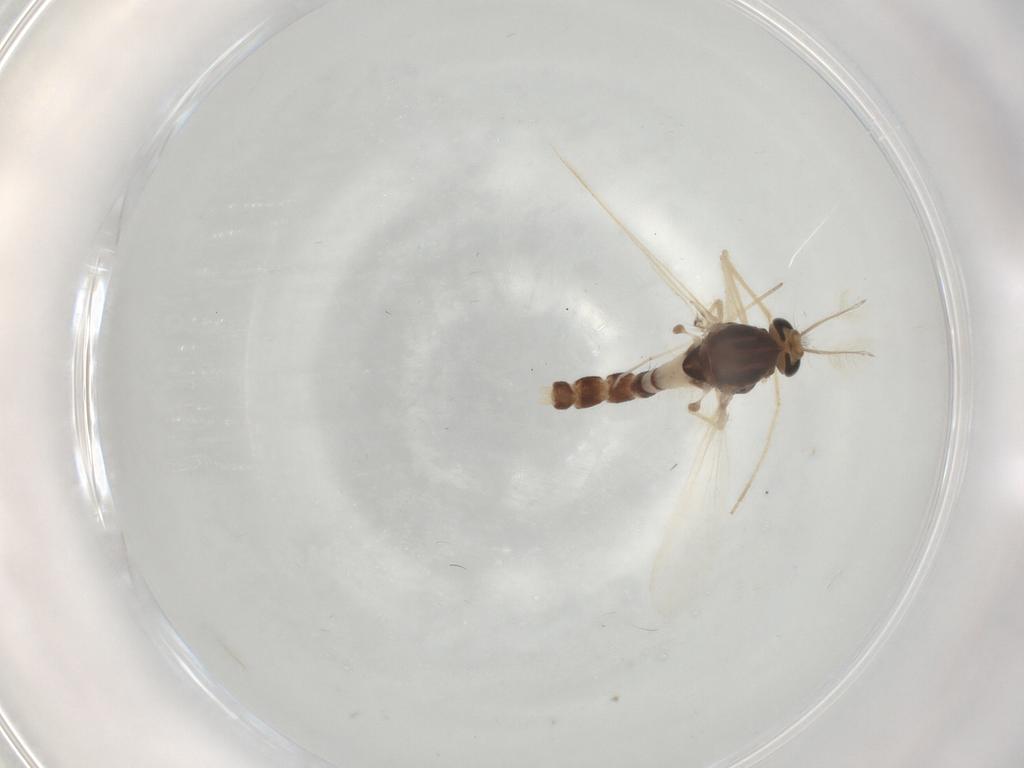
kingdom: Animalia
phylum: Arthropoda
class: Insecta
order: Diptera
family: Chironomidae
